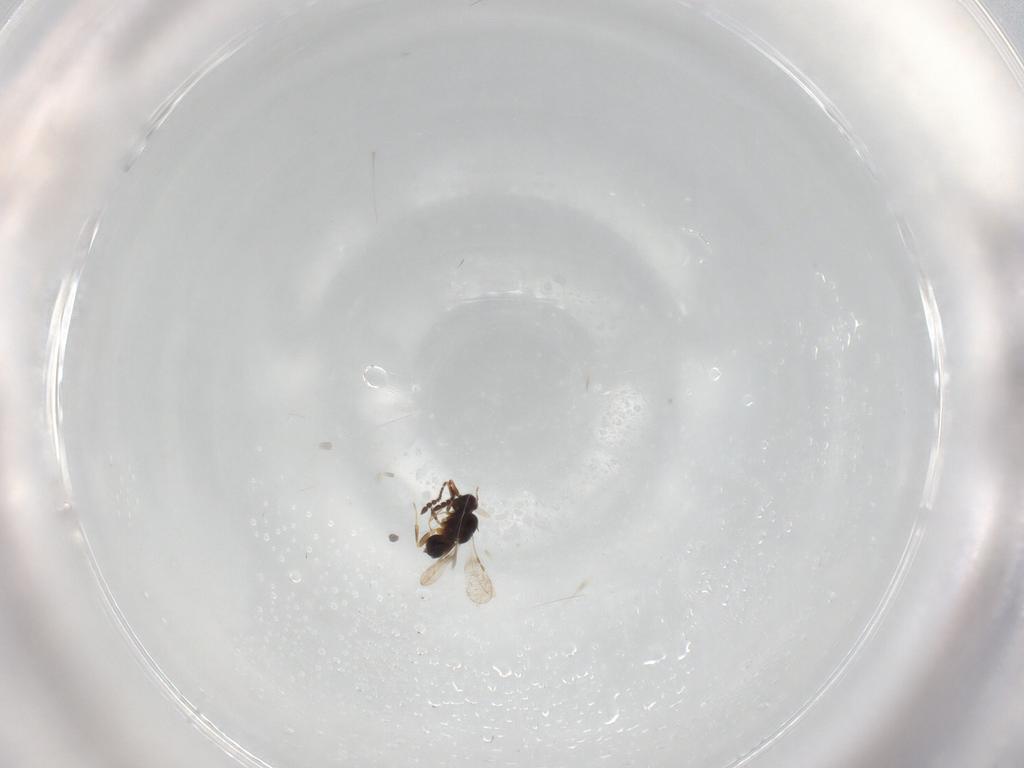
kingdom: Animalia
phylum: Arthropoda
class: Insecta
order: Hymenoptera
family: Ceraphronidae
